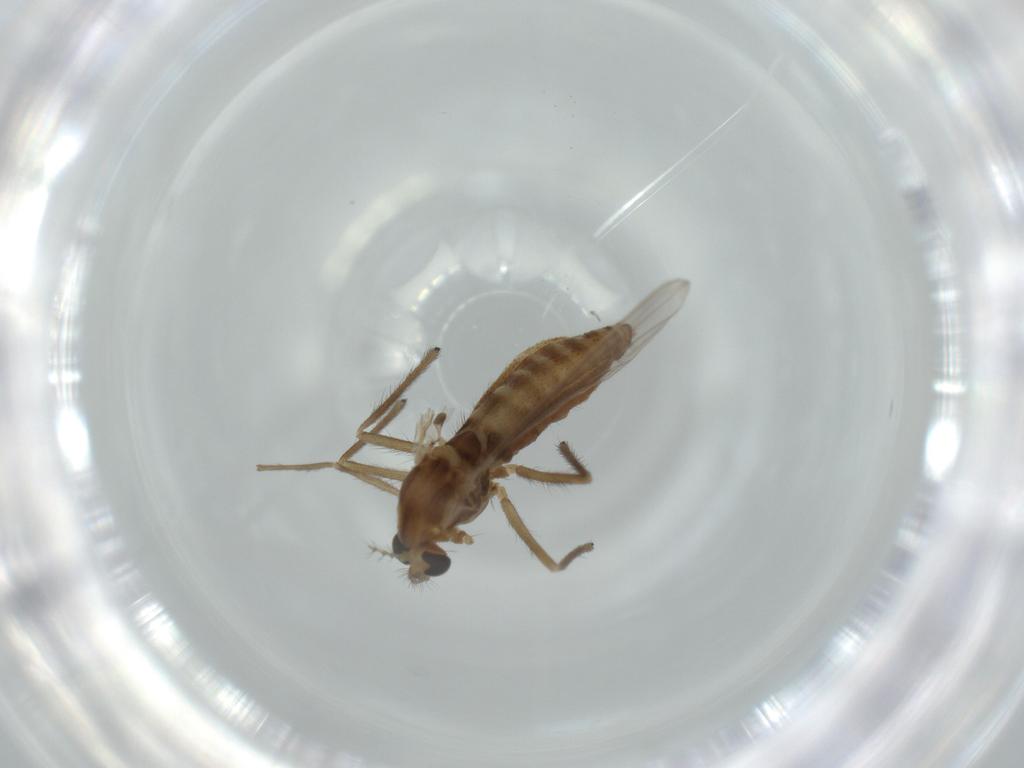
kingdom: Animalia
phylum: Arthropoda
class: Insecta
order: Diptera
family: Chironomidae
